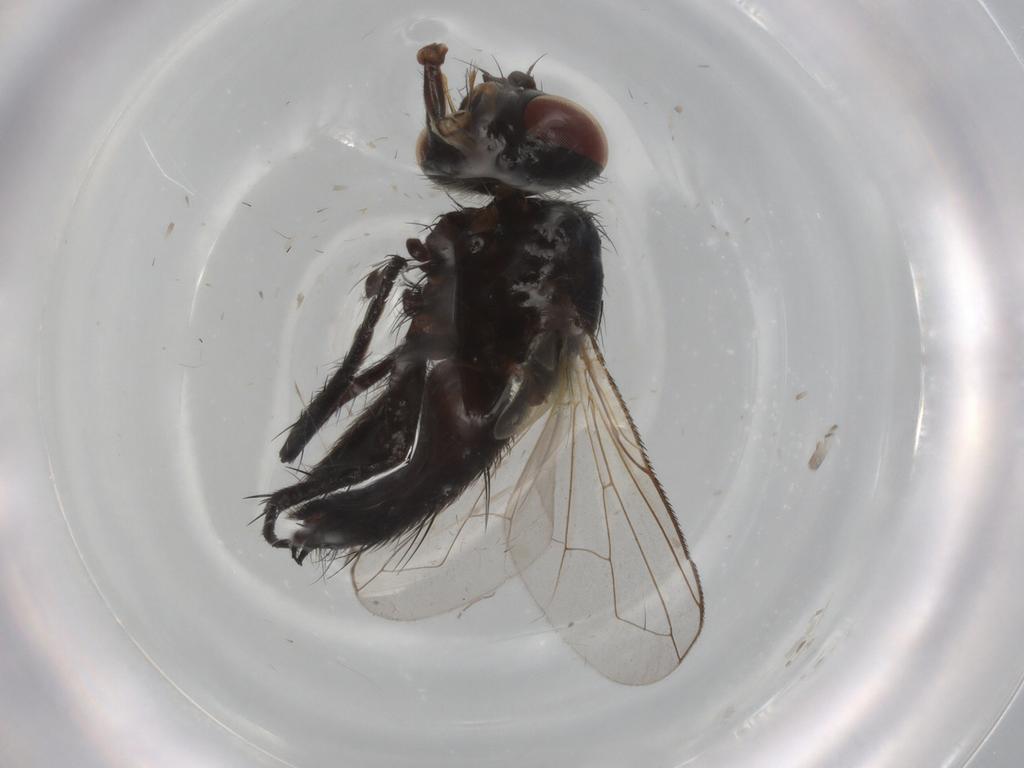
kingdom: Animalia
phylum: Arthropoda
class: Insecta
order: Diptera
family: Tachinidae
